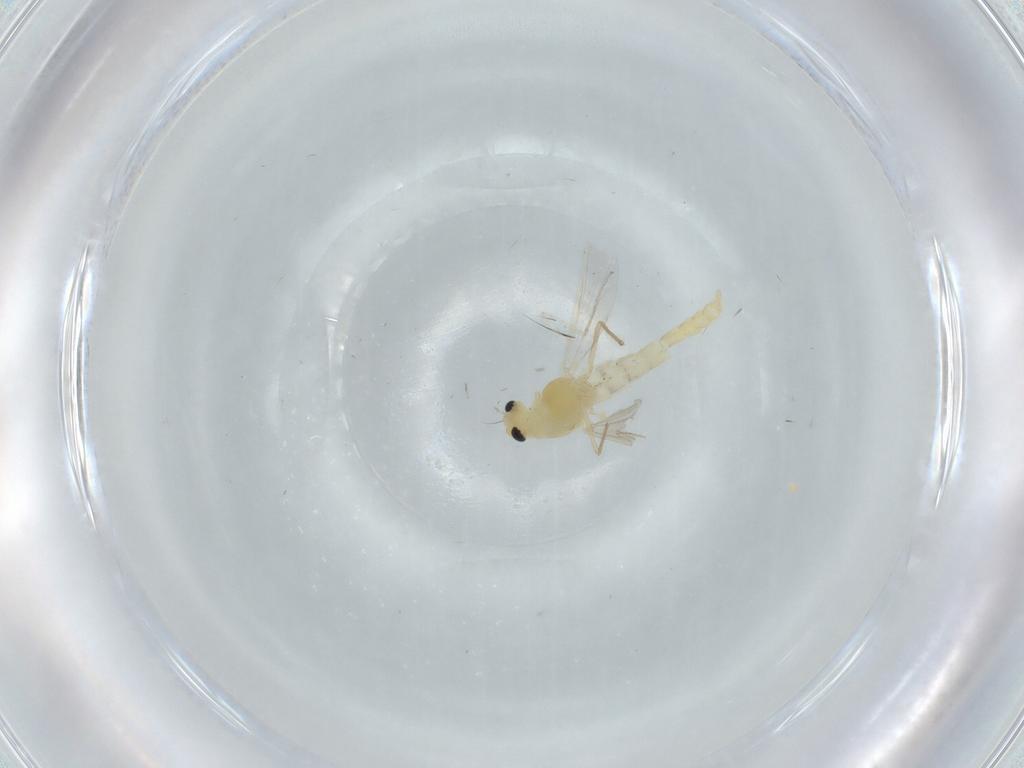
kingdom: Animalia
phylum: Arthropoda
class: Insecta
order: Diptera
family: Chironomidae
